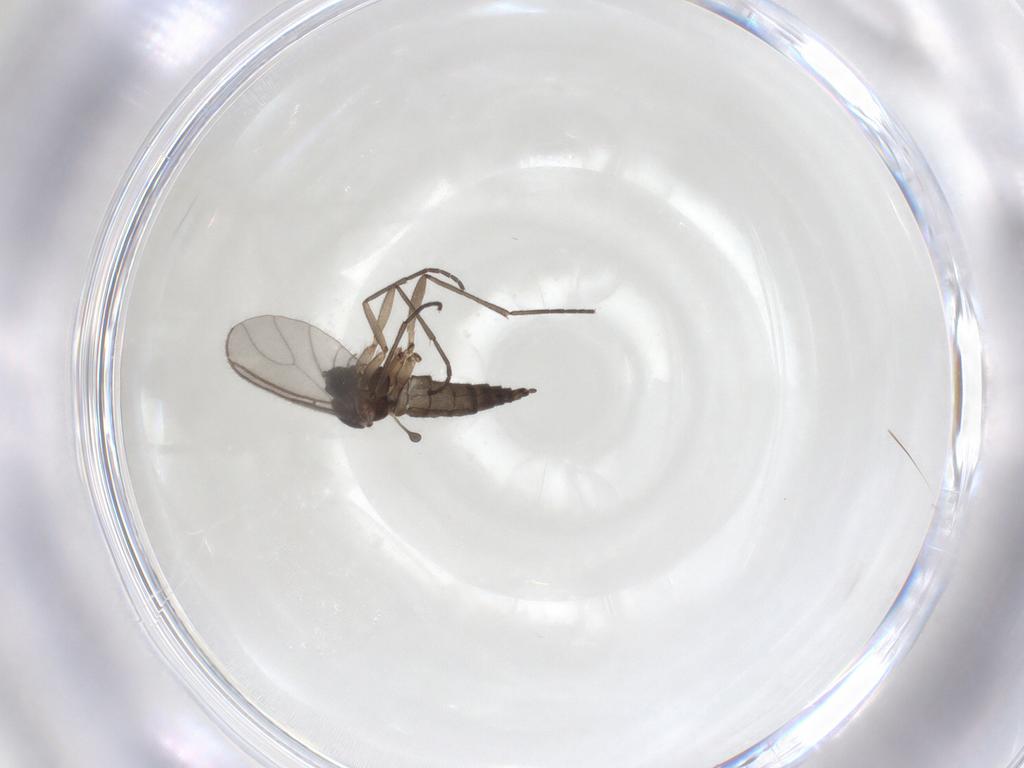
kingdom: Animalia
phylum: Arthropoda
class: Insecta
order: Diptera
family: Sciaridae
